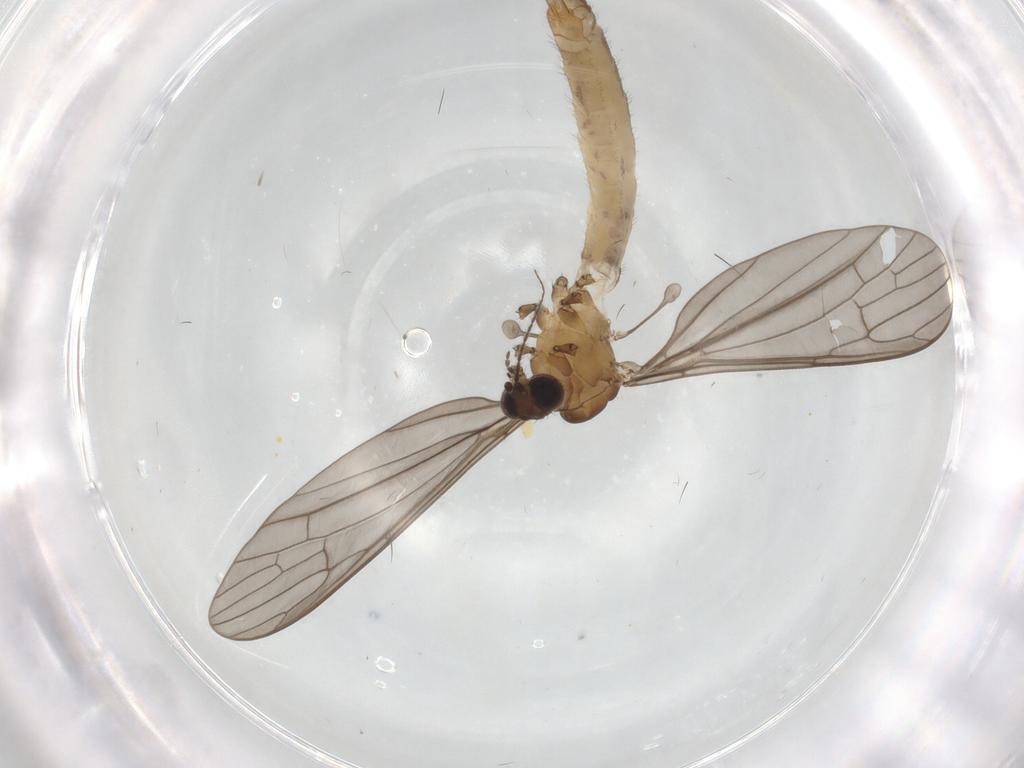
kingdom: Animalia
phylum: Arthropoda
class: Insecta
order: Diptera
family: Limoniidae
